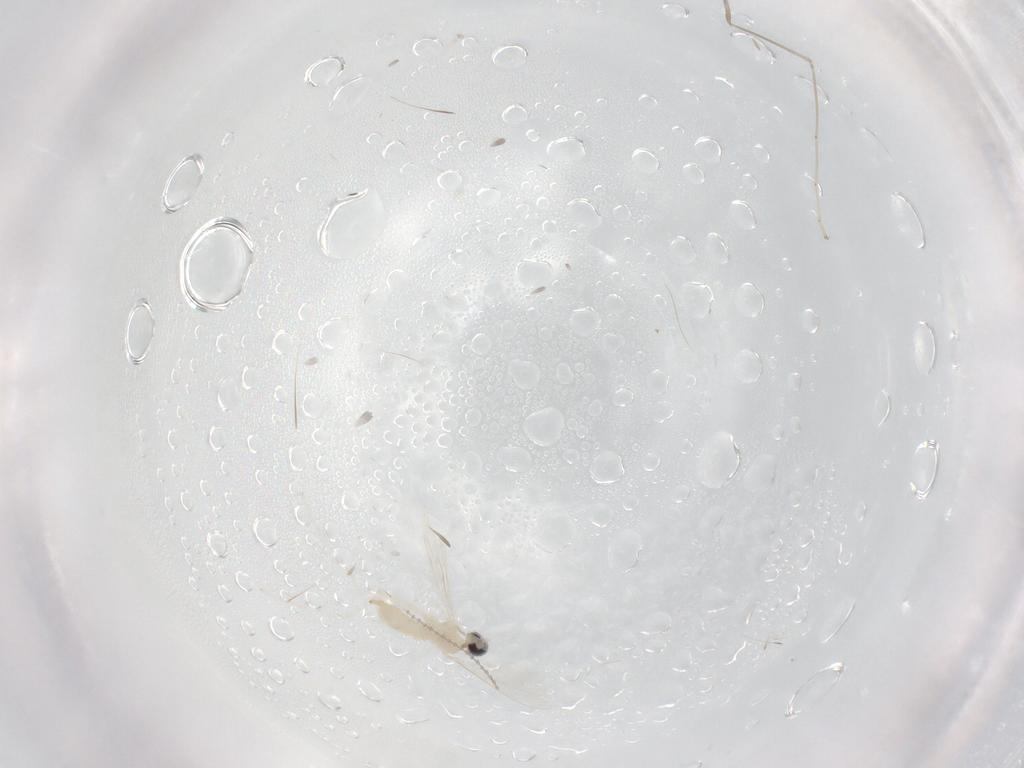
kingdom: Animalia
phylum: Arthropoda
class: Insecta
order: Diptera
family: Cecidomyiidae
